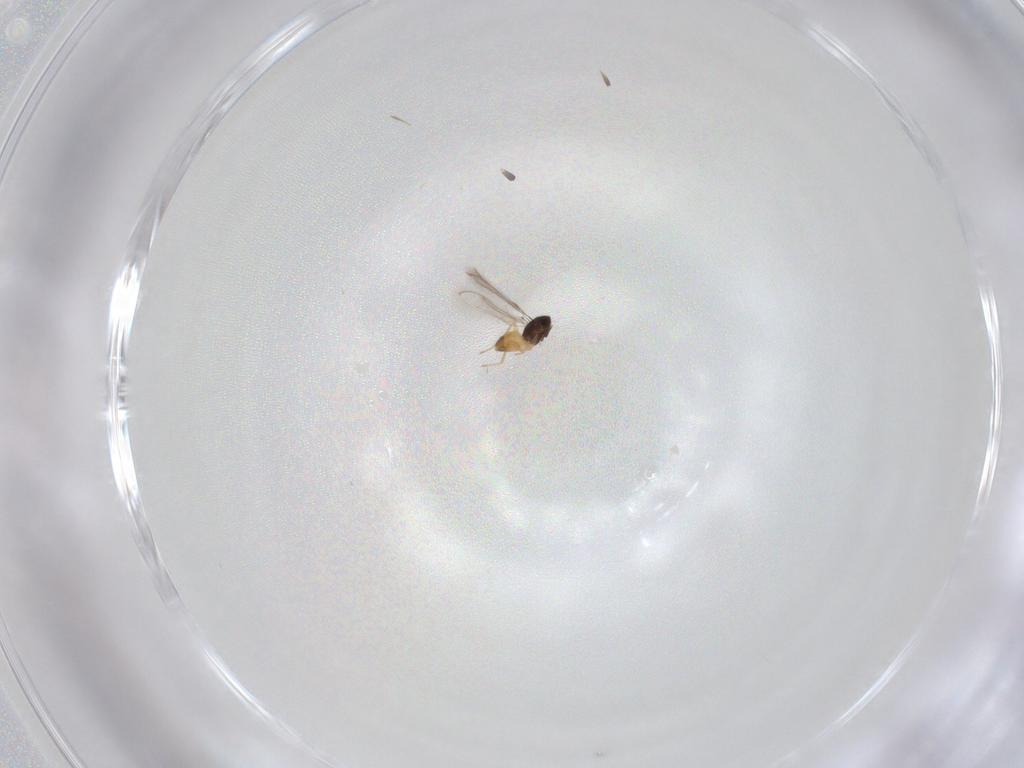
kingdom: Animalia
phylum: Arthropoda
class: Insecta
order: Hymenoptera
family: Mymaridae
